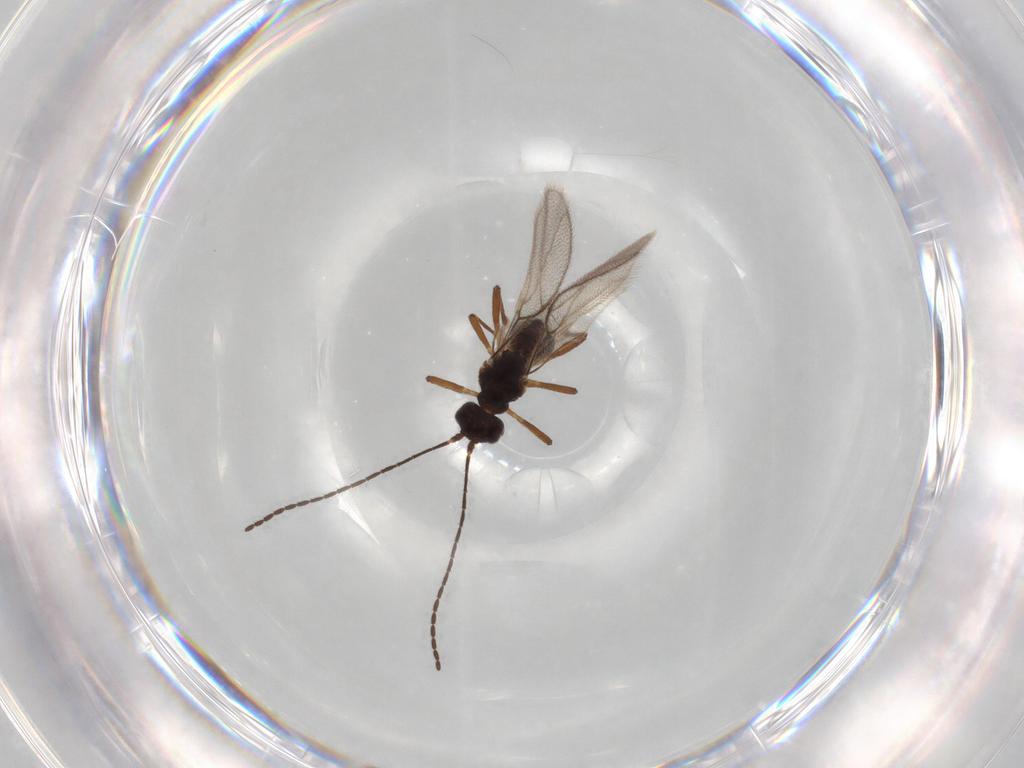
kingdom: Animalia
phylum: Arthropoda
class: Insecta
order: Hymenoptera
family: Braconidae
